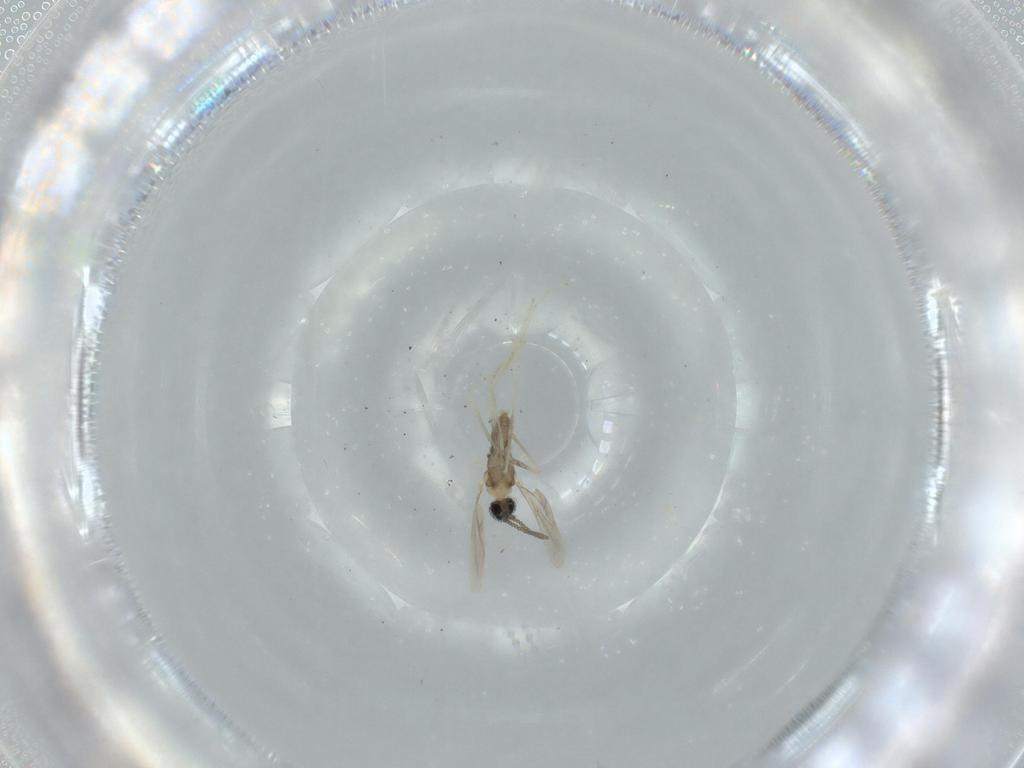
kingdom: Animalia
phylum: Arthropoda
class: Insecta
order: Diptera
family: Cecidomyiidae
